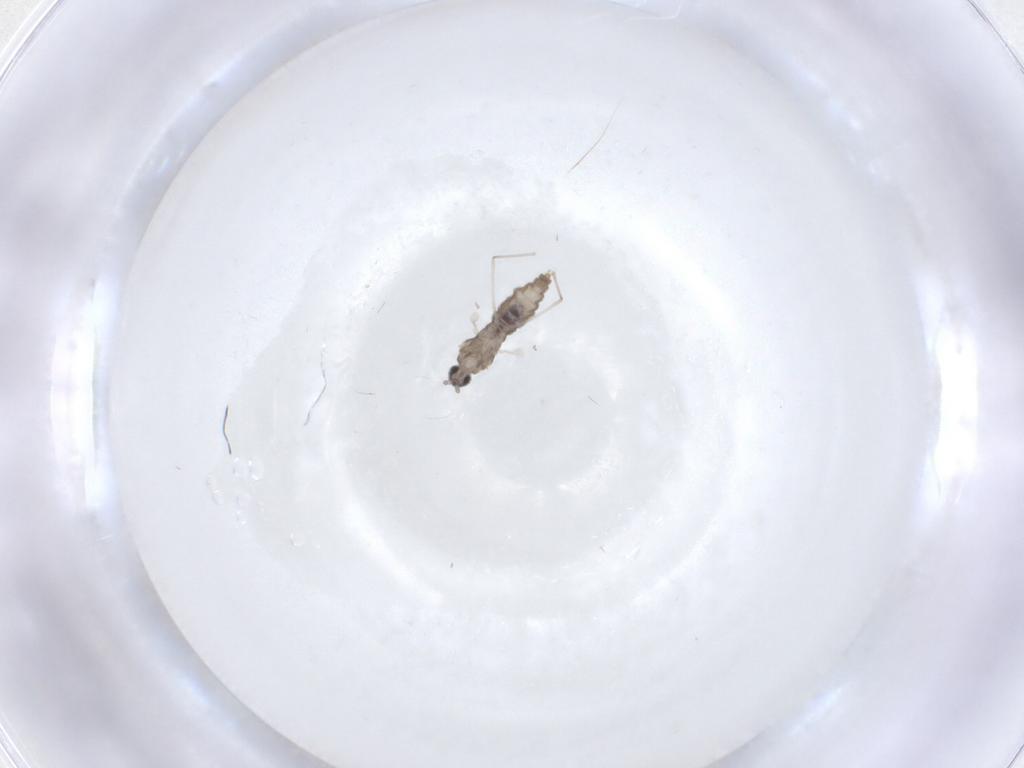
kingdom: Animalia
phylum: Arthropoda
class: Insecta
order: Diptera
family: Cecidomyiidae
